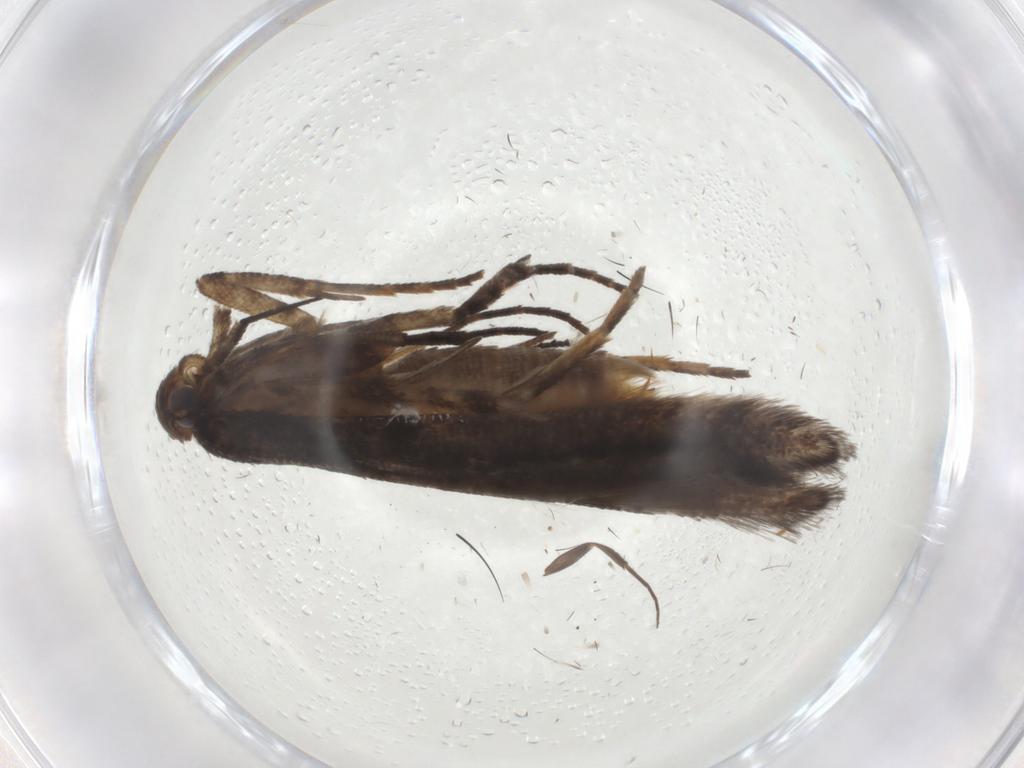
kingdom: Animalia
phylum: Arthropoda
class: Insecta
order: Lepidoptera
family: Gelechiidae
